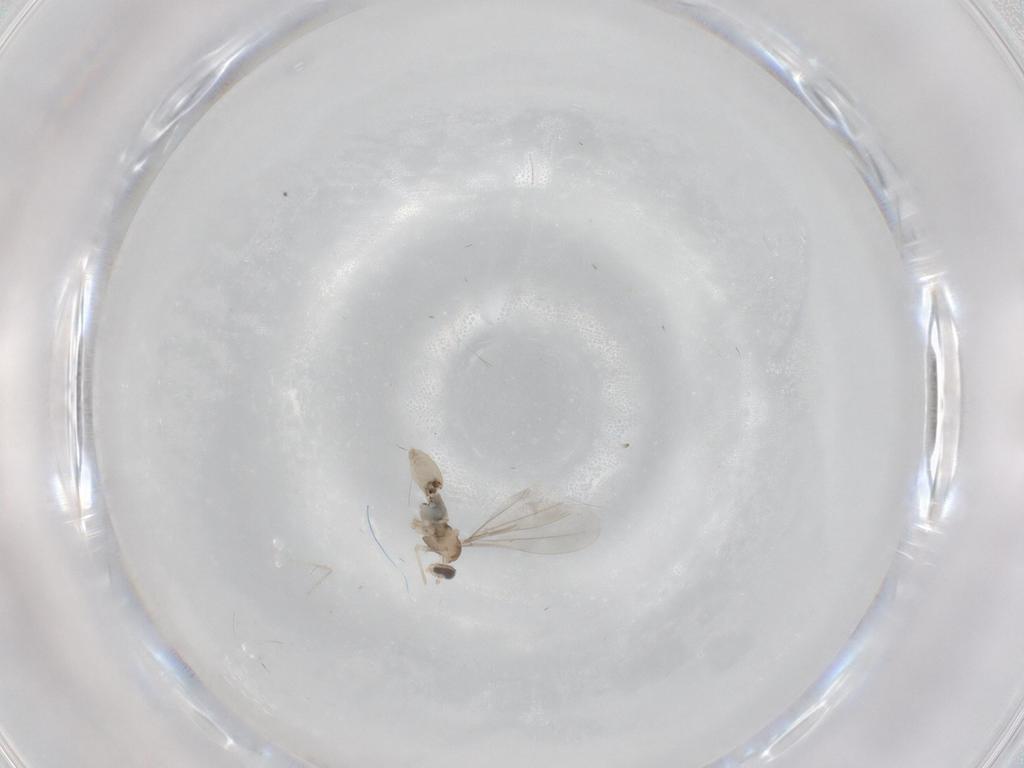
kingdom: Animalia
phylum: Arthropoda
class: Insecta
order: Diptera
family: Cecidomyiidae
